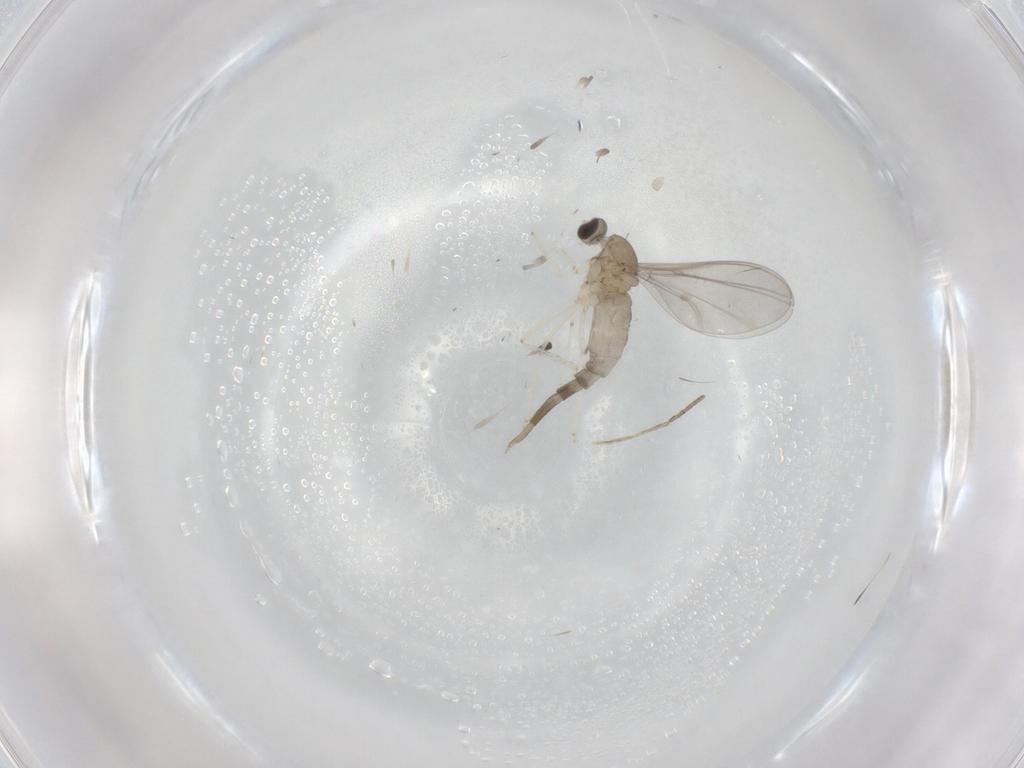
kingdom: Animalia
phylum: Arthropoda
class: Insecta
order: Diptera
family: Cecidomyiidae
